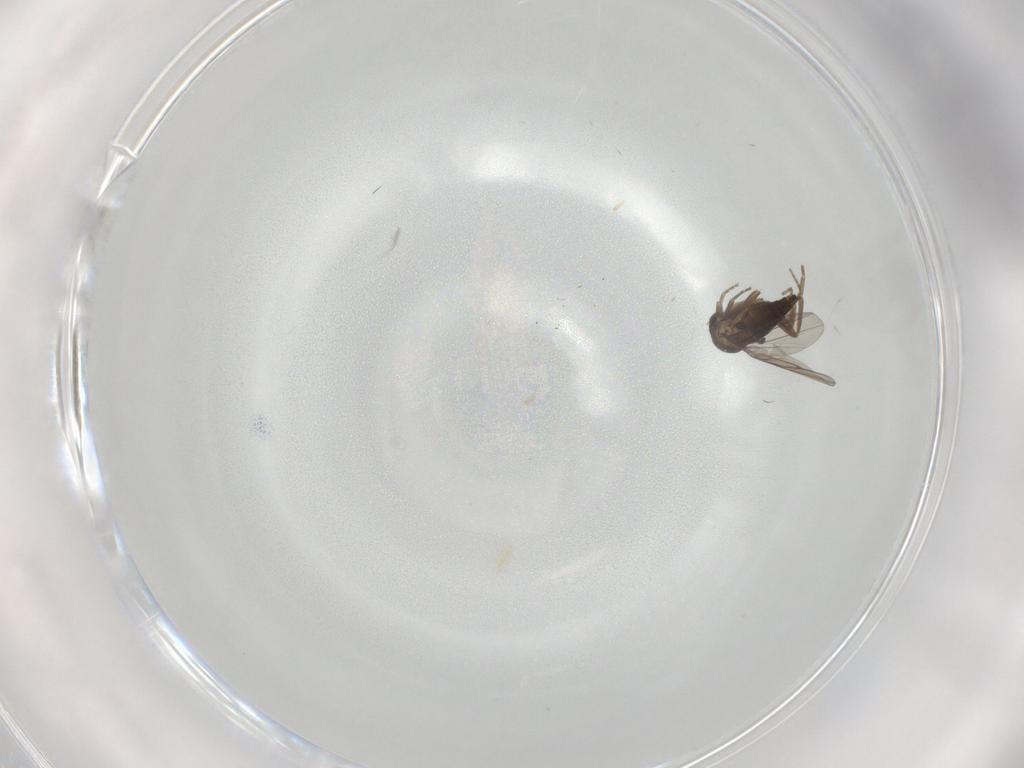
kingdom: Animalia
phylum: Arthropoda
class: Insecta
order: Diptera
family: Tabanidae
